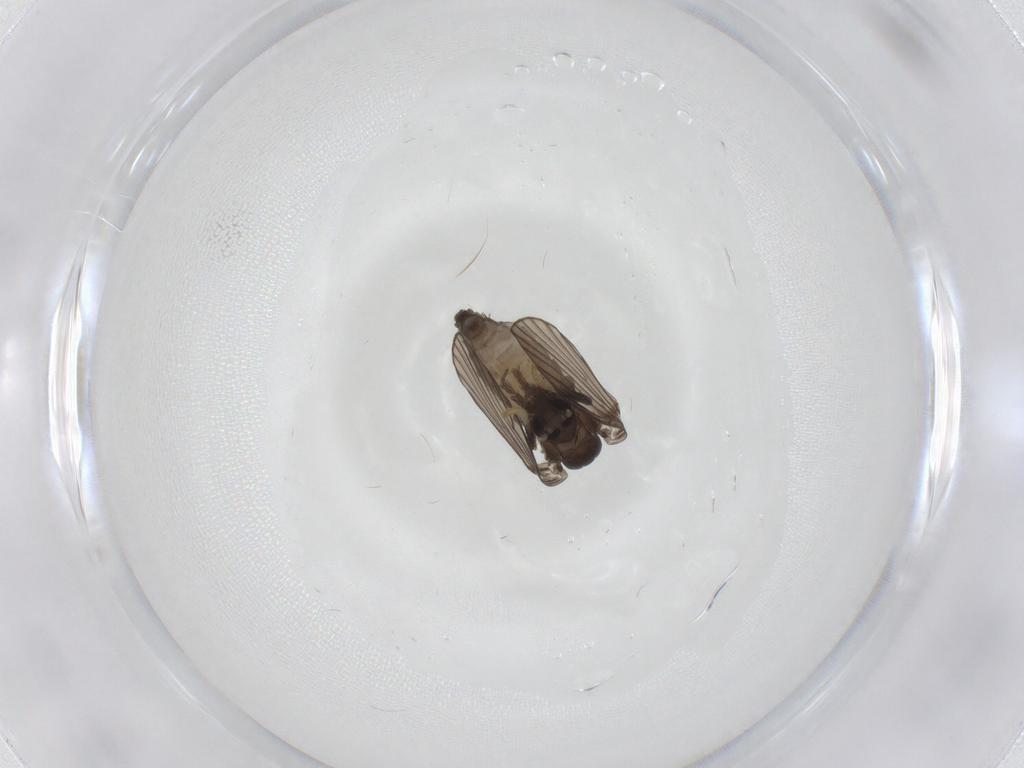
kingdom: Animalia
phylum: Arthropoda
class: Insecta
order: Diptera
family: Psychodidae
